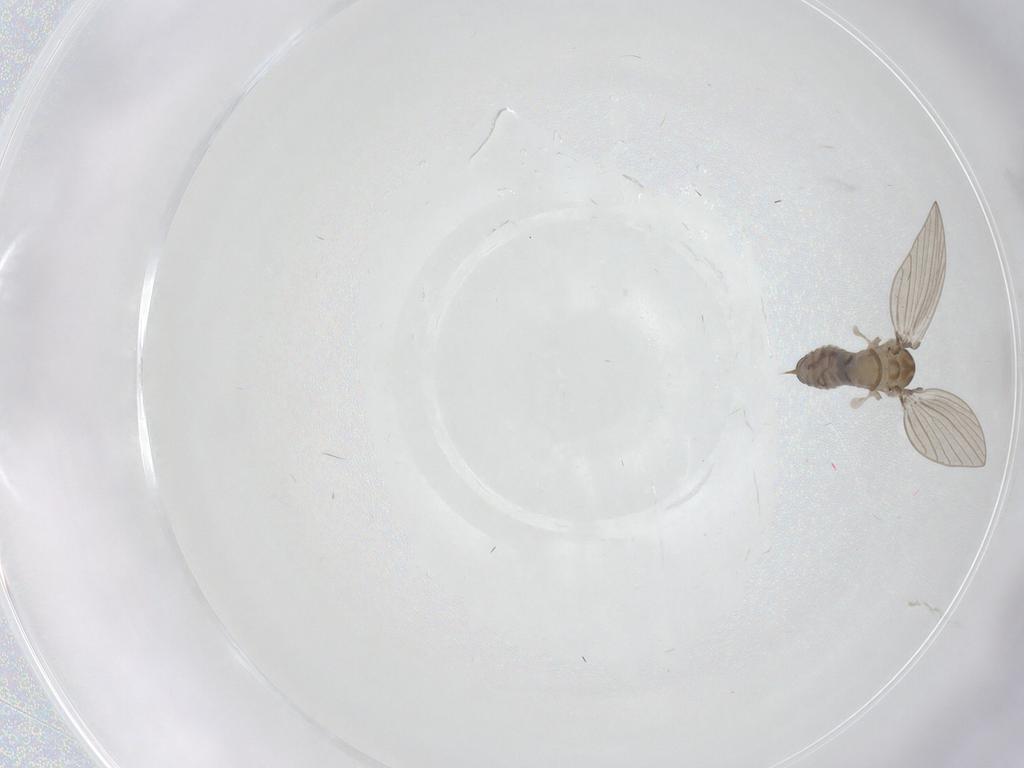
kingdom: Animalia
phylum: Arthropoda
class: Insecta
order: Diptera
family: Psychodidae
